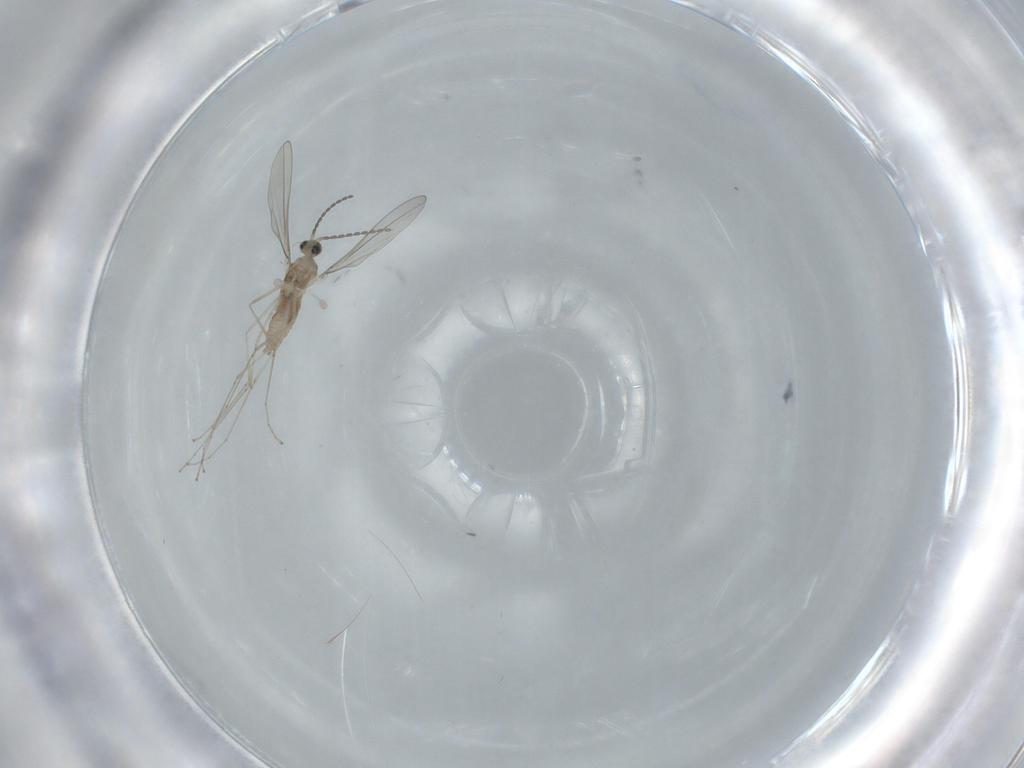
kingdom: Animalia
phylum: Arthropoda
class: Insecta
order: Diptera
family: Cecidomyiidae
